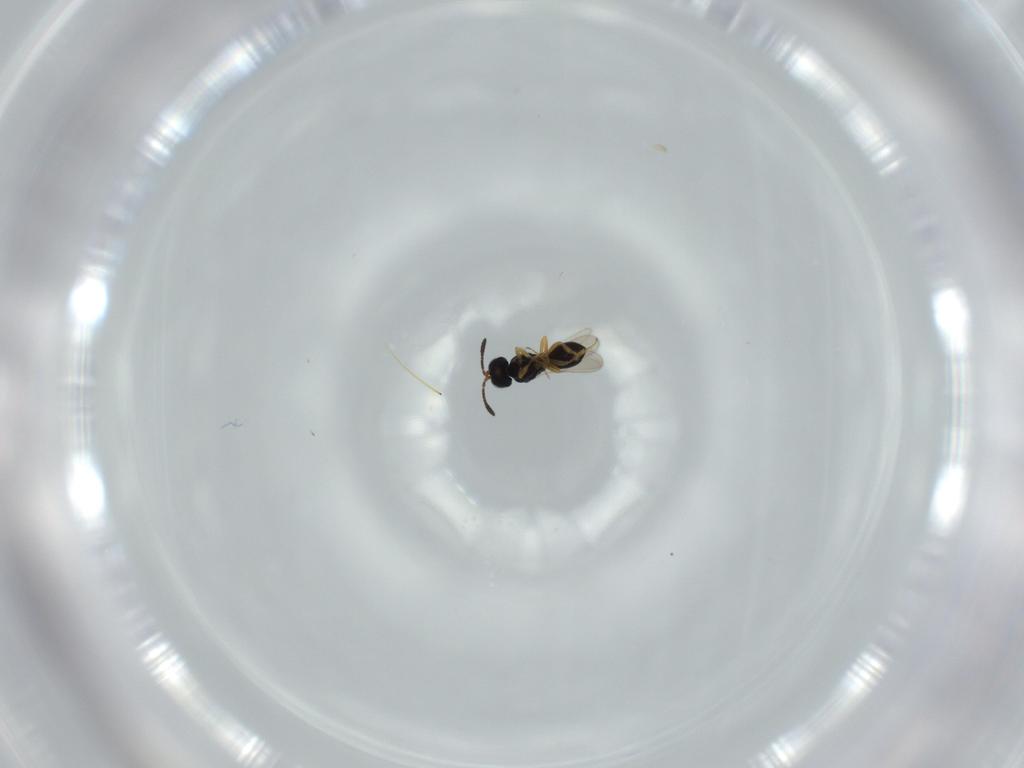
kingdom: Animalia
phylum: Arthropoda
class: Insecta
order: Hymenoptera
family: Scelionidae
